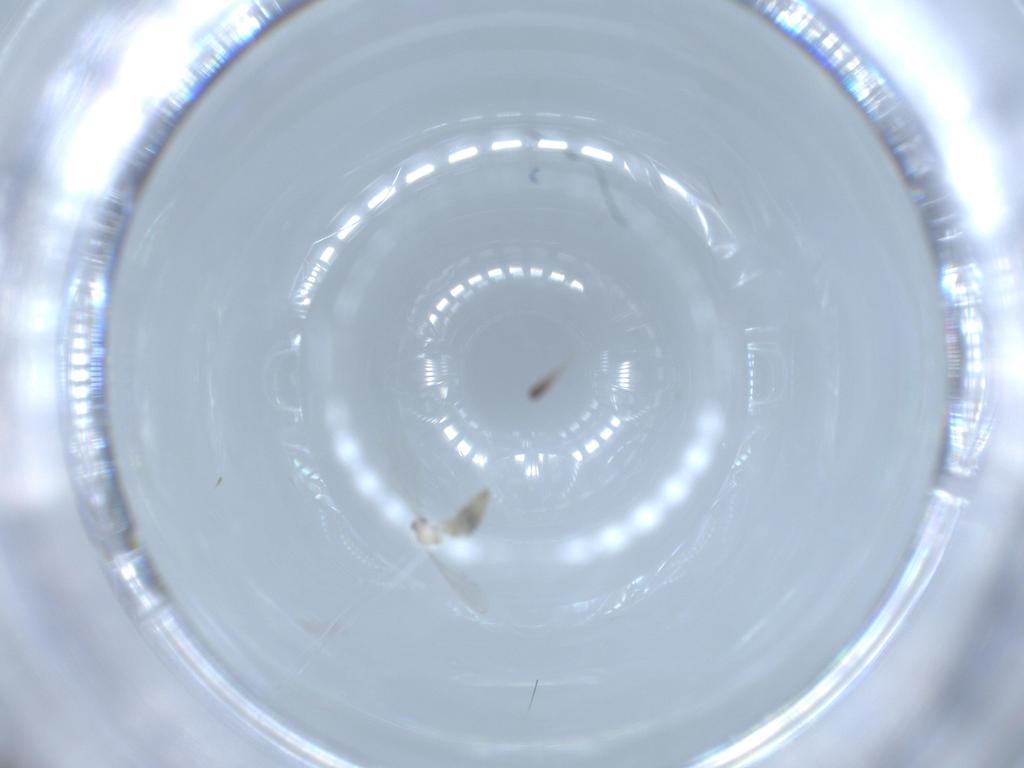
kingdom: Animalia
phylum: Arthropoda
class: Insecta
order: Diptera
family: Cecidomyiidae
